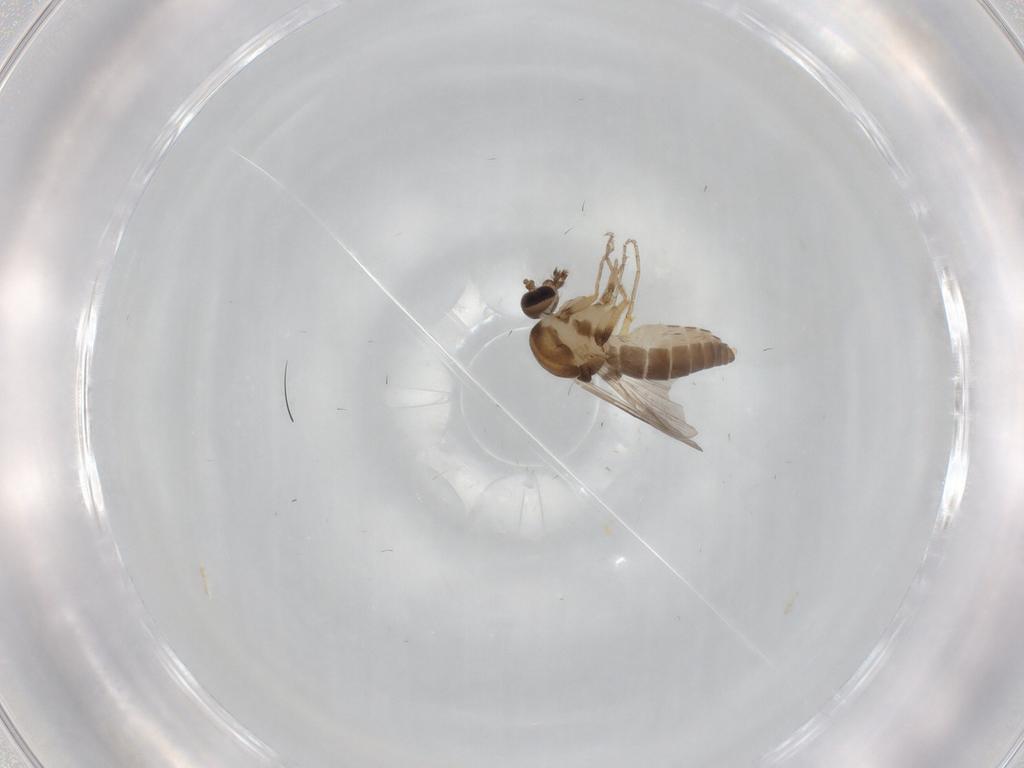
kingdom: Animalia
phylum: Arthropoda
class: Insecta
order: Diptera
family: Ceratopogonidae
